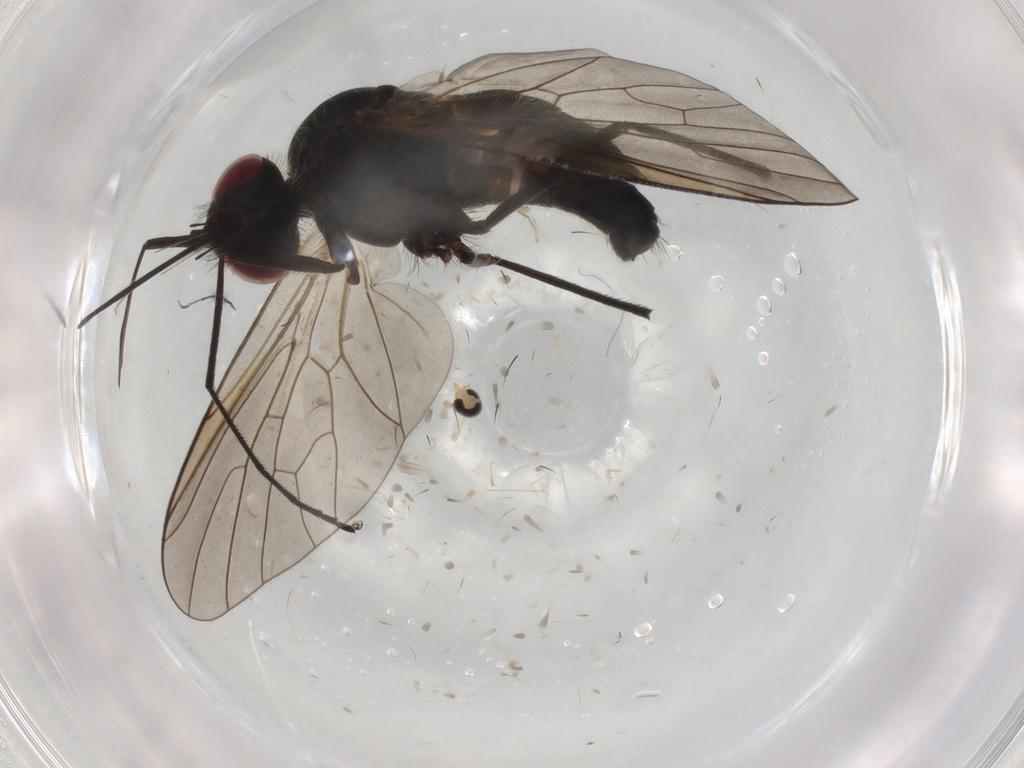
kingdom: Animalia
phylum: Arthropoda
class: Insecta
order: Diptera
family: Bombyliidae
